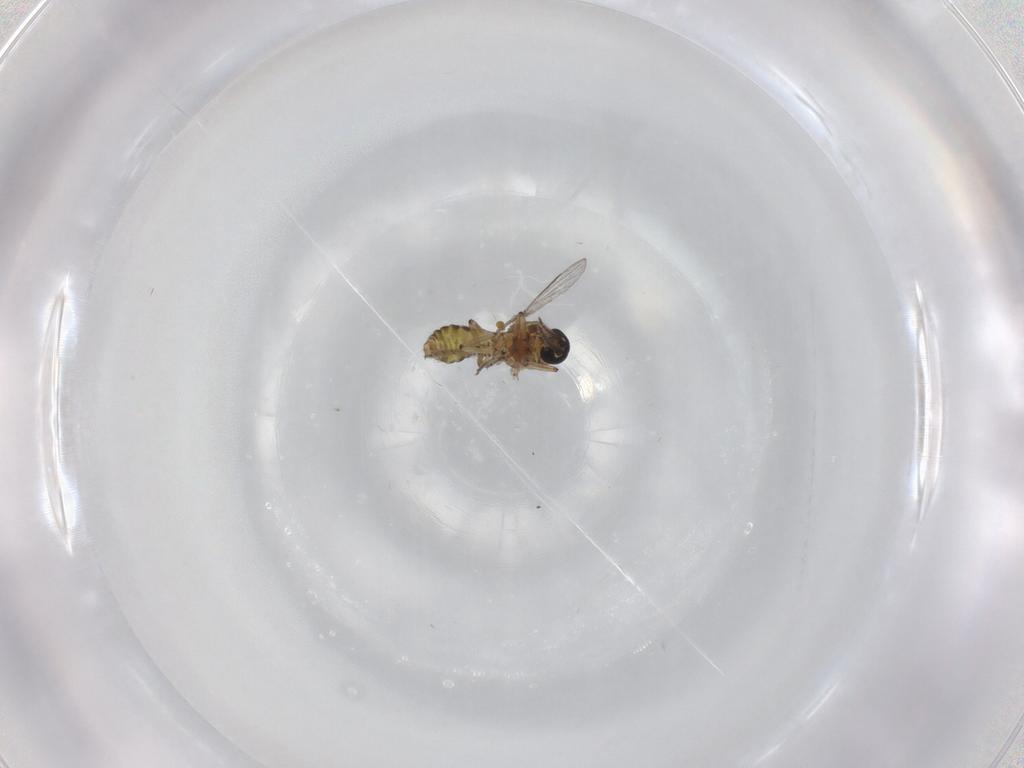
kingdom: Animalia
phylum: Arthropoda
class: Insecta
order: Diptera
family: Ceratopogonidae
